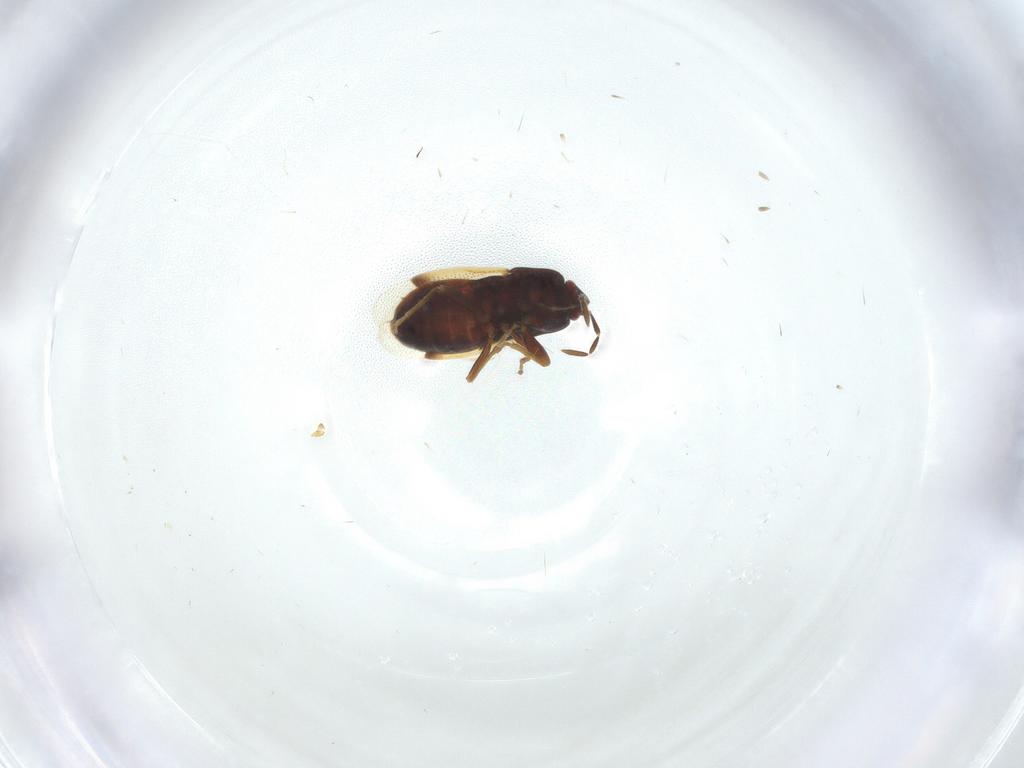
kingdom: Animalia
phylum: Arthropoda
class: Insecta
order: Hemiptera
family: Rhyparochromidae
